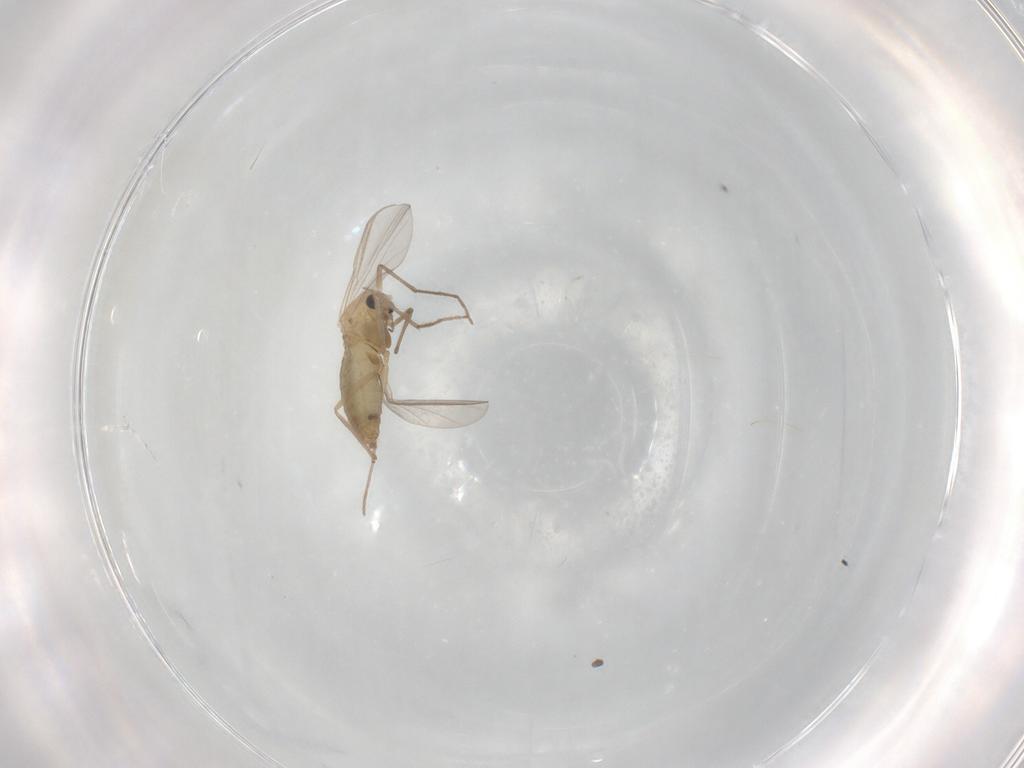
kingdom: Animalia
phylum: Arthropoda
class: Insecta
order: Diptera
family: Chironomidae
